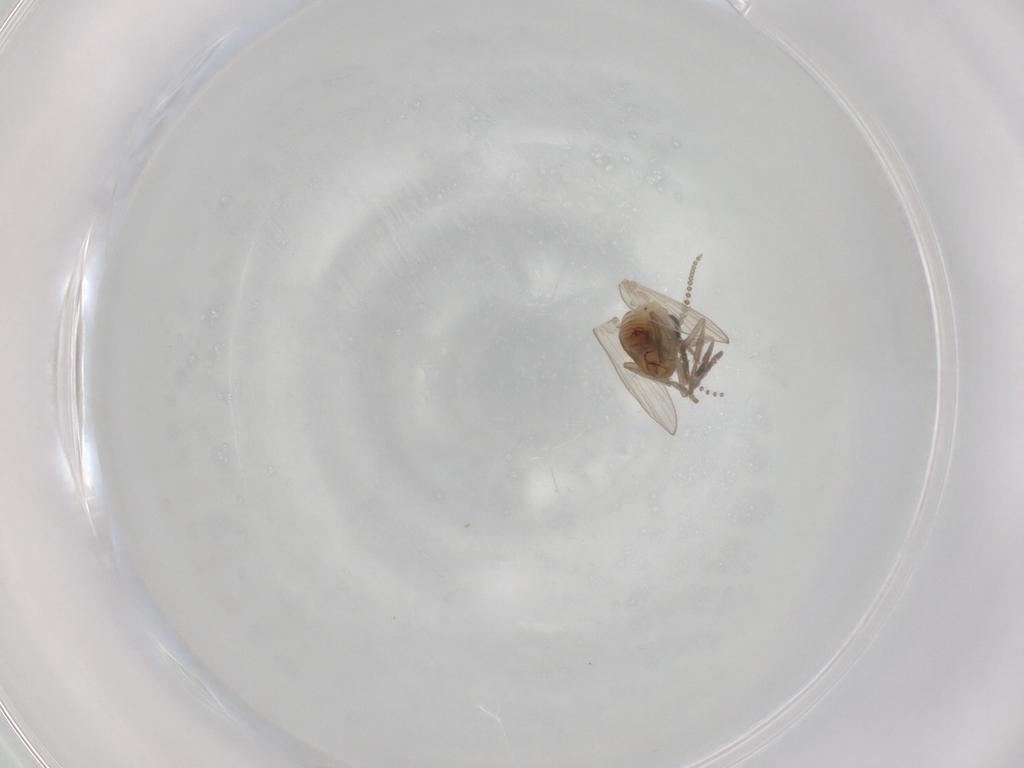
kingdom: Animalia
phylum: Arthropoda
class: Insecta
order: Diptera
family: Psychodidae
